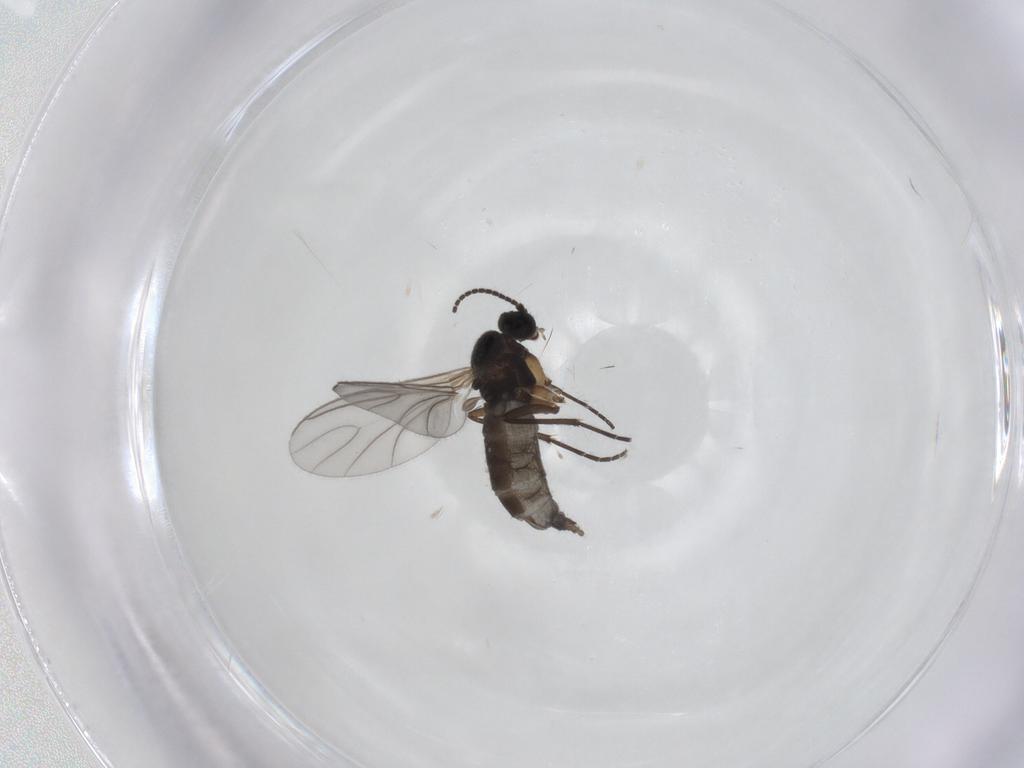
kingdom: Animalia
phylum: Arthropoda
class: Insecta
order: Diptera
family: Sciaridae
